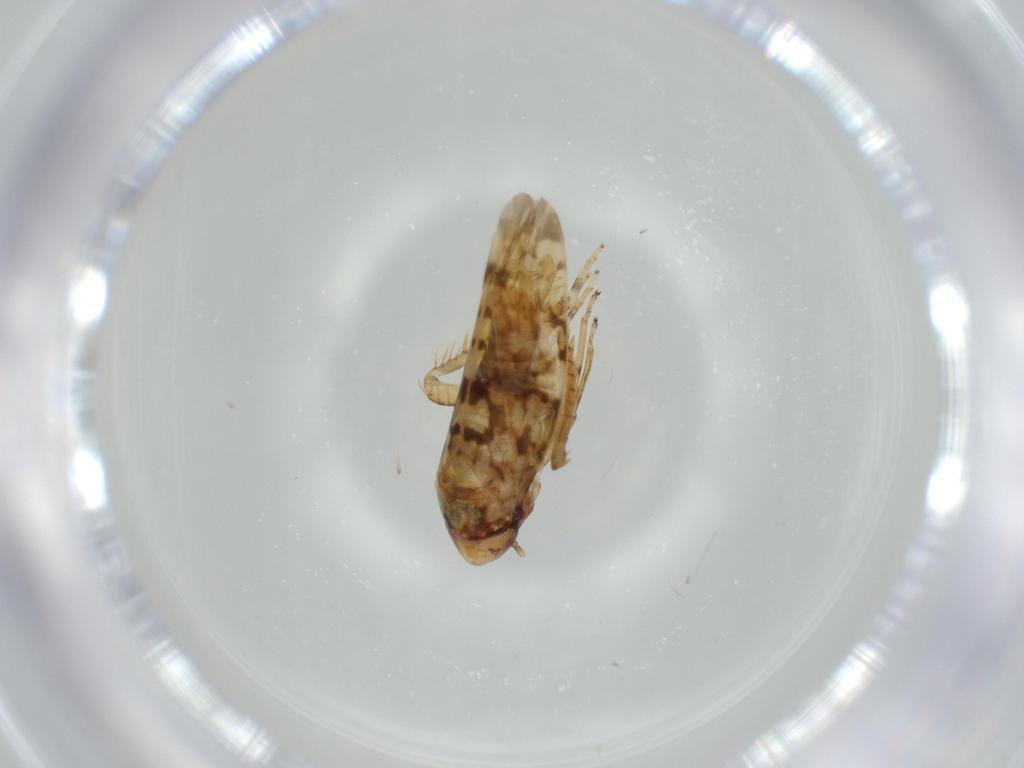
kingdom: Animalia
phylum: Arthropoda
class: Insecta
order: Hemiptera
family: Cicadellidae
